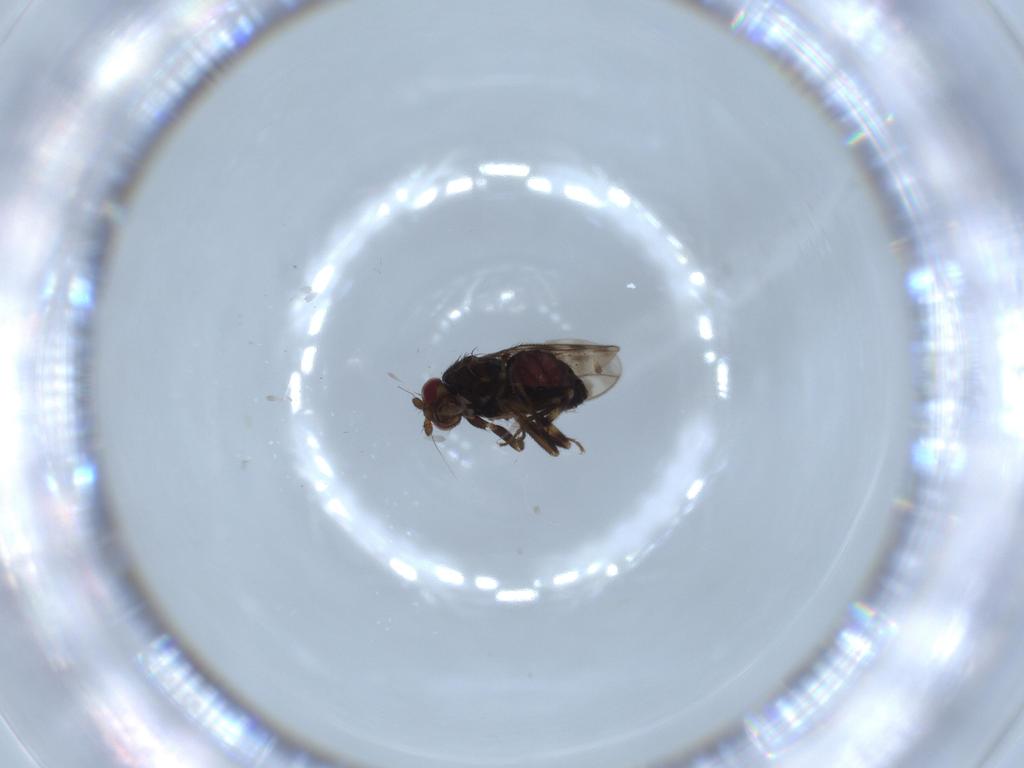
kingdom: Animalia
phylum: Arthropoda
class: Insecta
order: Diptera
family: Sphaeroceridae
